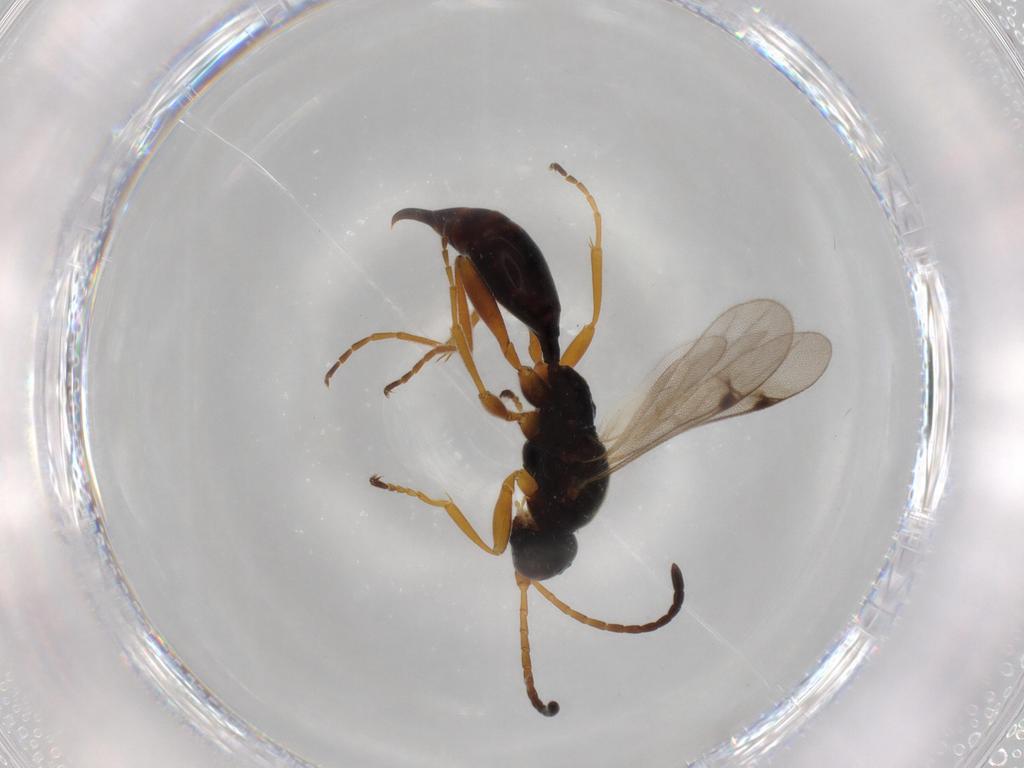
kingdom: Animalia
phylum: Arthropoda
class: Insecta
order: Hymenoptera
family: Proctotrupidae
